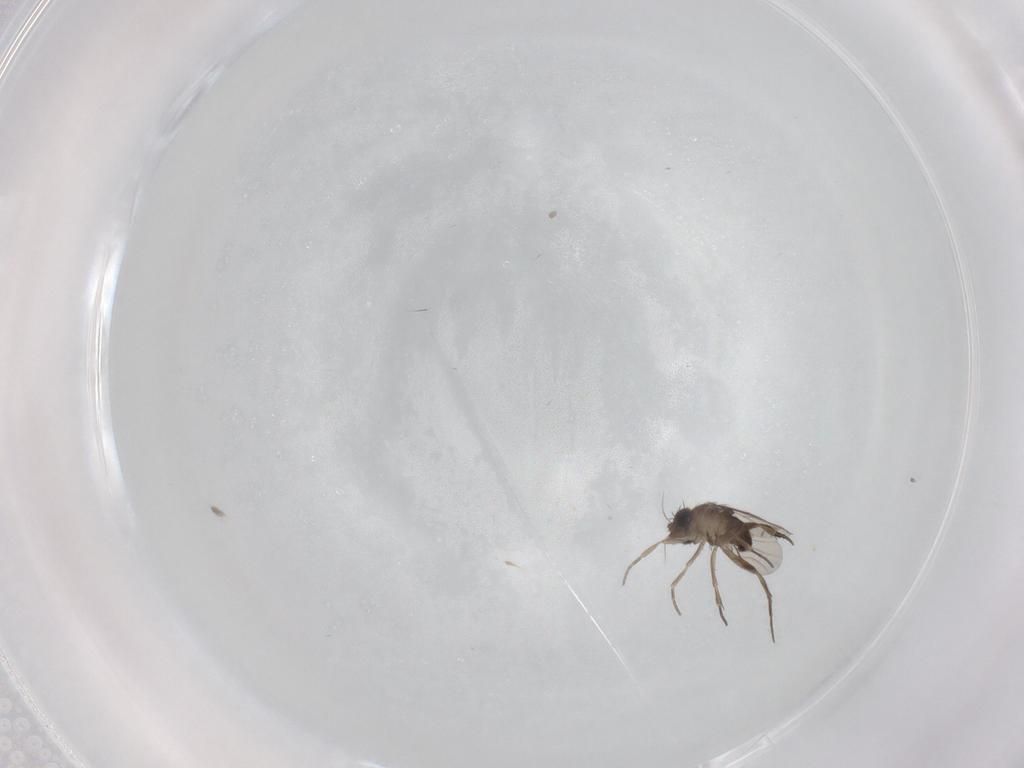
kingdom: Animalia
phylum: Arthropoda
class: Insecta
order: Diptera
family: Phoridae
